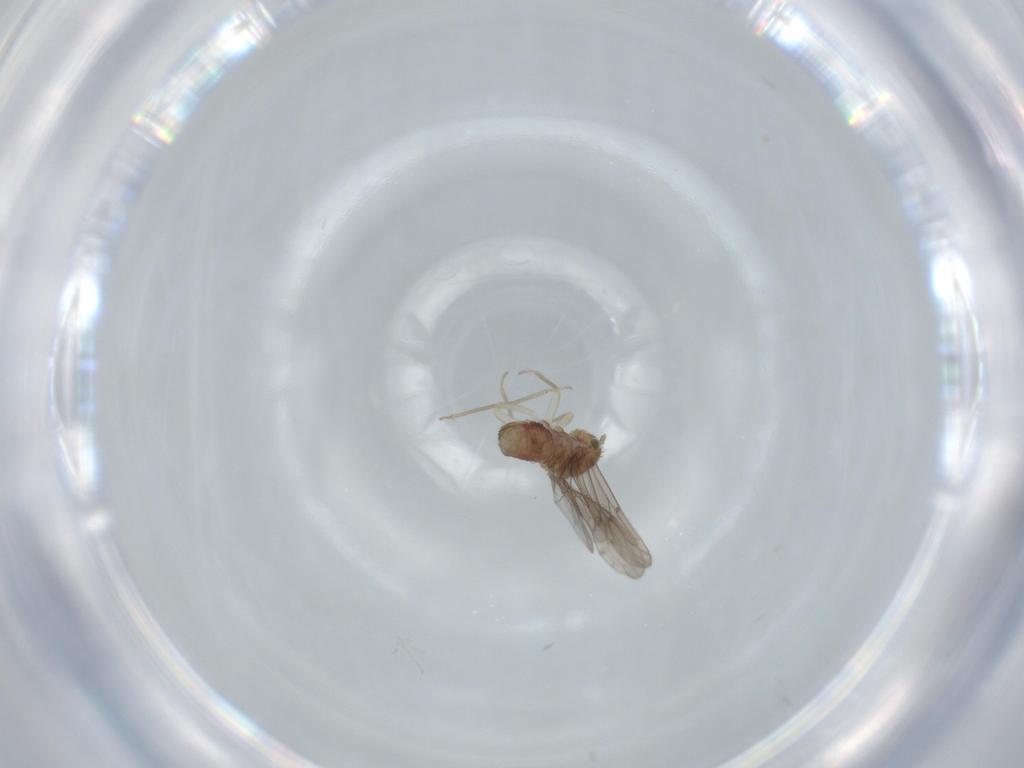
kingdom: Animalia
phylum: Arthropoda
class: Insecta
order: Psocodea
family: Ectopsocidae
